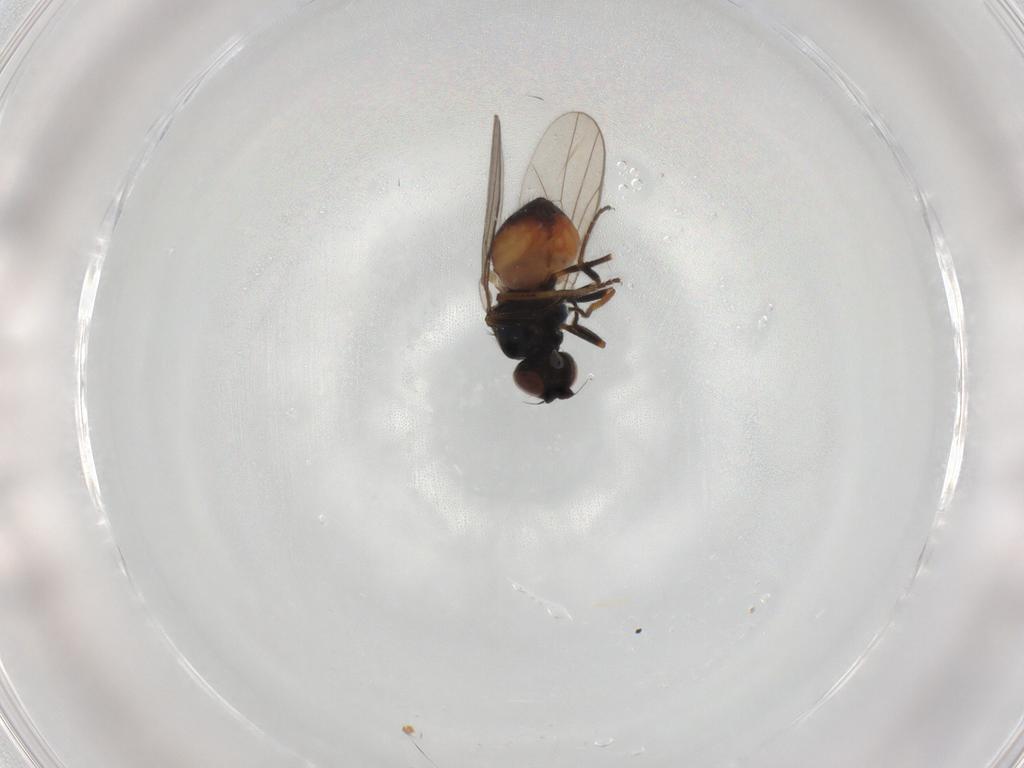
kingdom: Animalia
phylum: Arthropoda
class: Insecta
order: Diptera
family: Chloropidae
